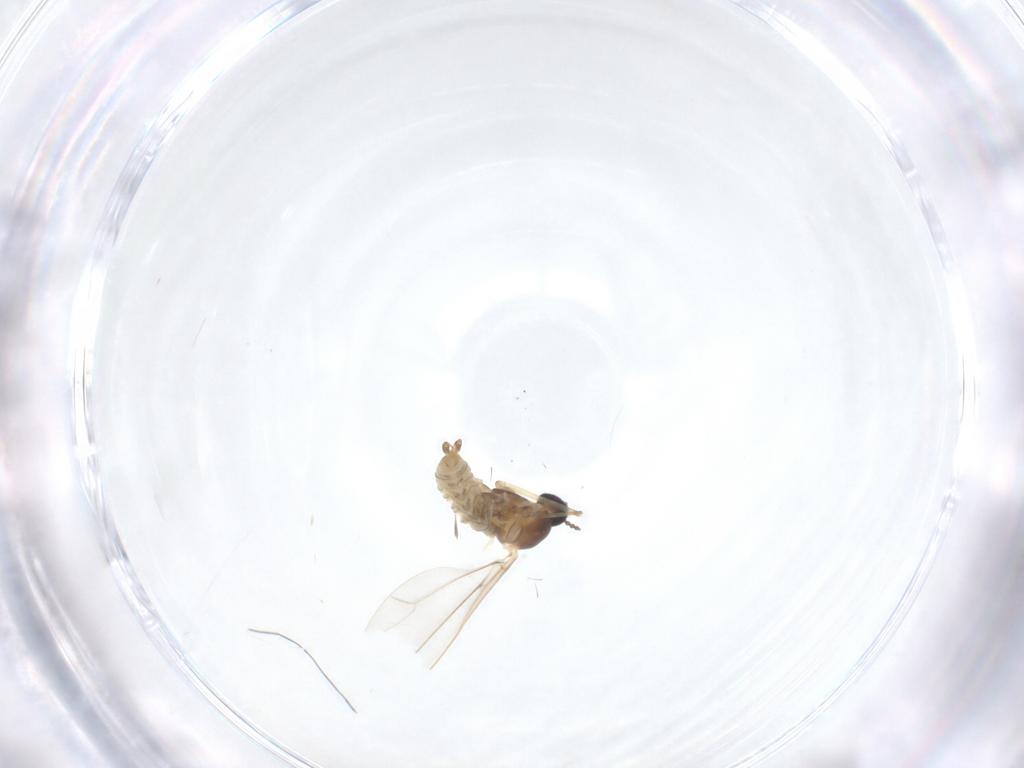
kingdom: Animalia
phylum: Arthropoda
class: Insecta
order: Diptera
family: Cecidomyiidae
